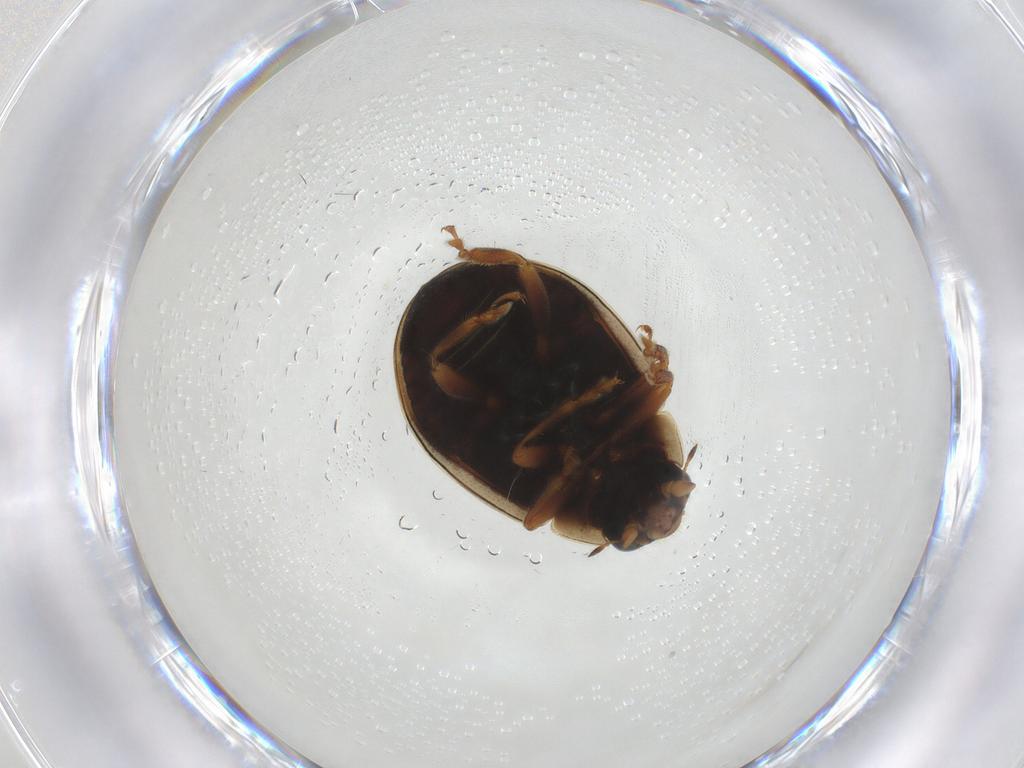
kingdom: Animalia
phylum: Arthropoda
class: Insecta
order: Coleoptera
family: Coccinellidae
